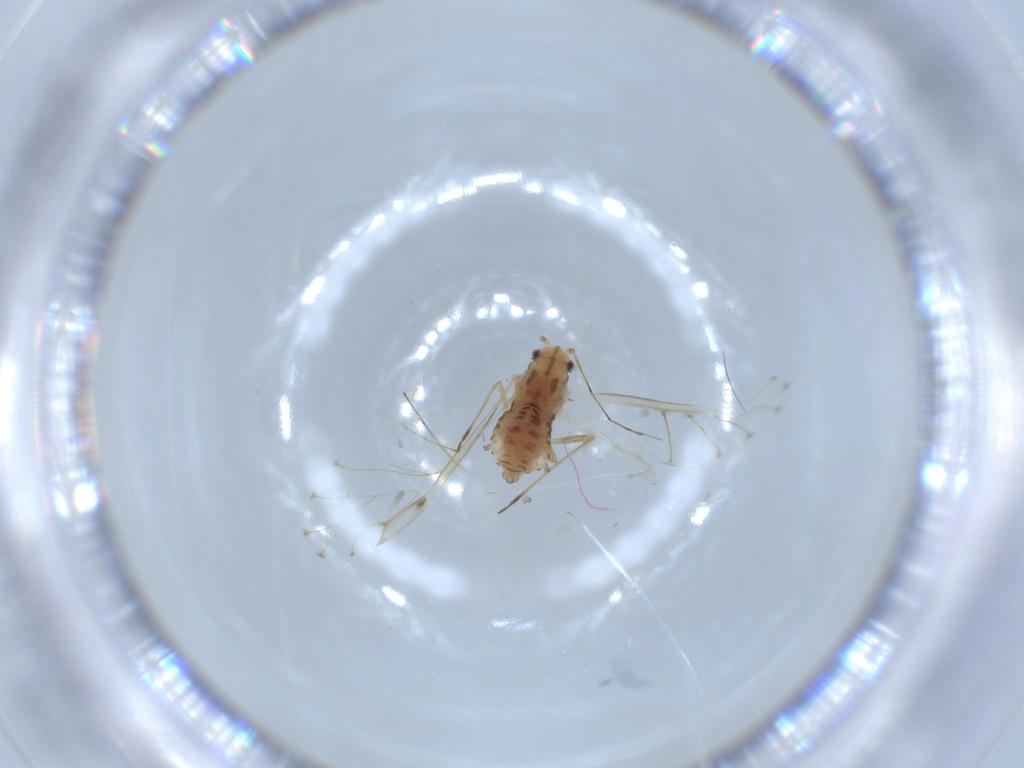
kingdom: Animalia
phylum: Arthropoda
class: Insecta
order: Hemiptera
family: Aphididae
